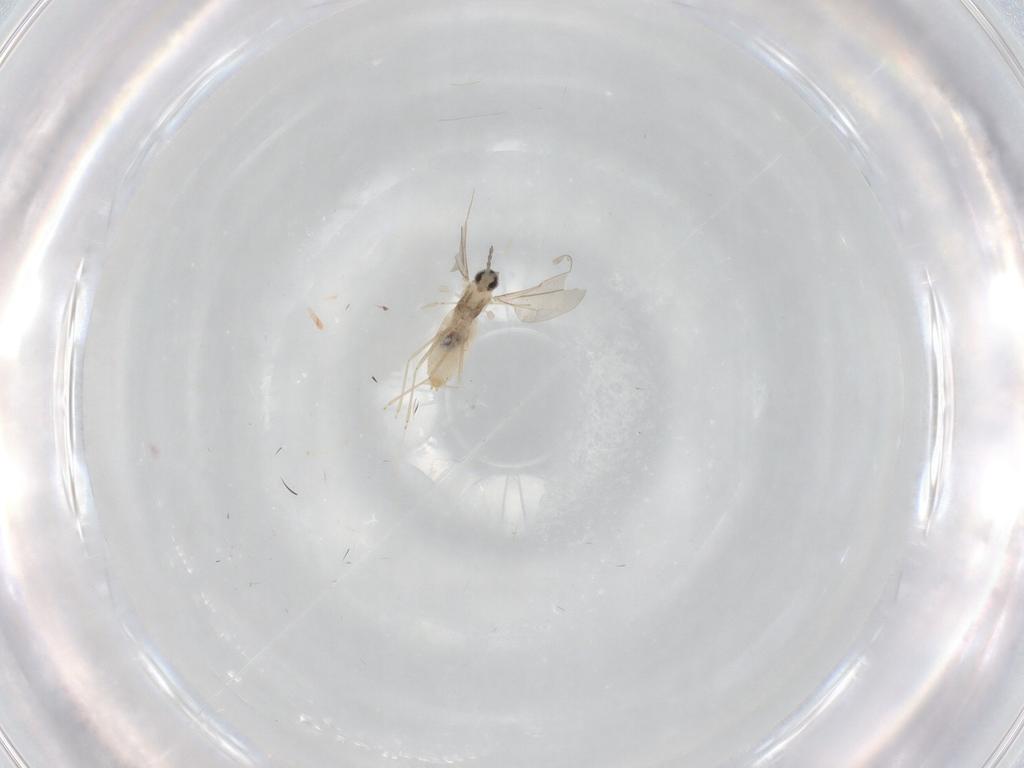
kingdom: Animalia
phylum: Arthropoda
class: Insecta
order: Diptera
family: Cecidomyiidae
